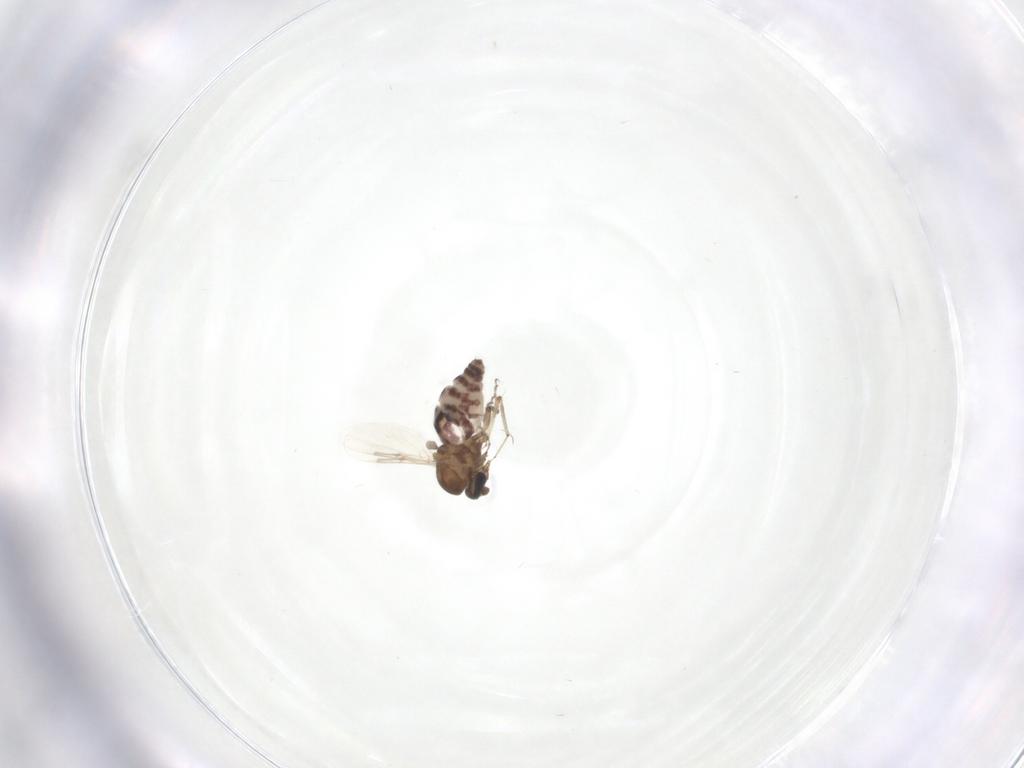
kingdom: Animalia
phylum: Arthropoda
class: Insecta
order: Diptera
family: Ceratopogonidae
